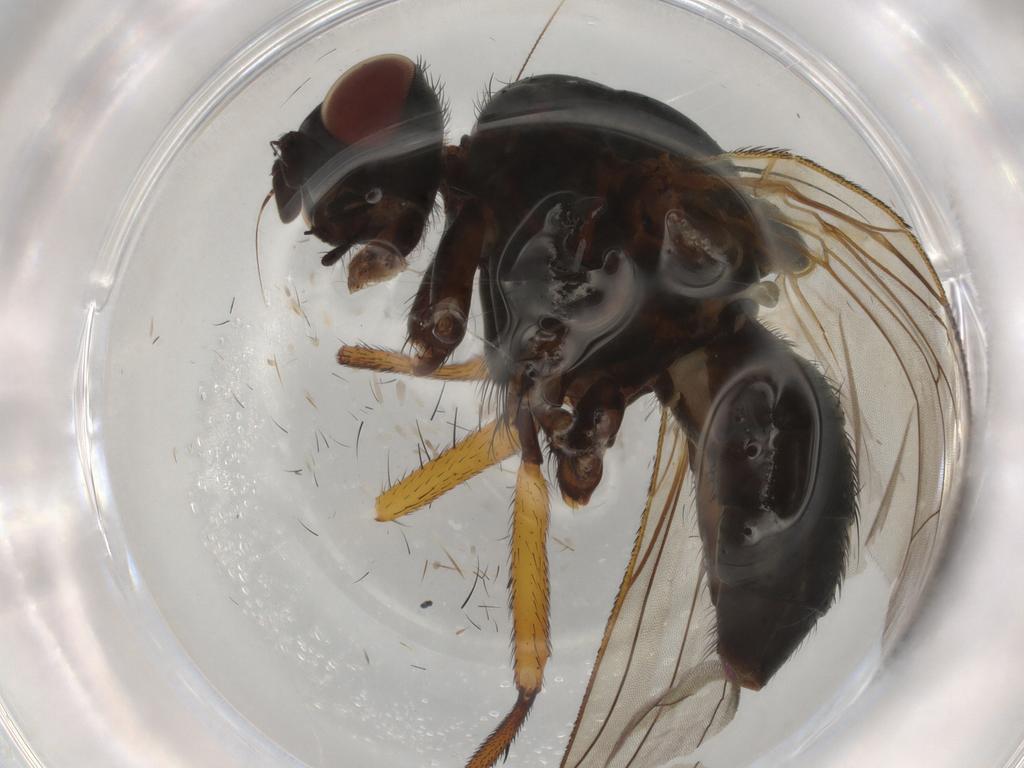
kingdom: Animalia
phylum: Arthropoda
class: Insecta
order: Diptera
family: Anthomyiidae
